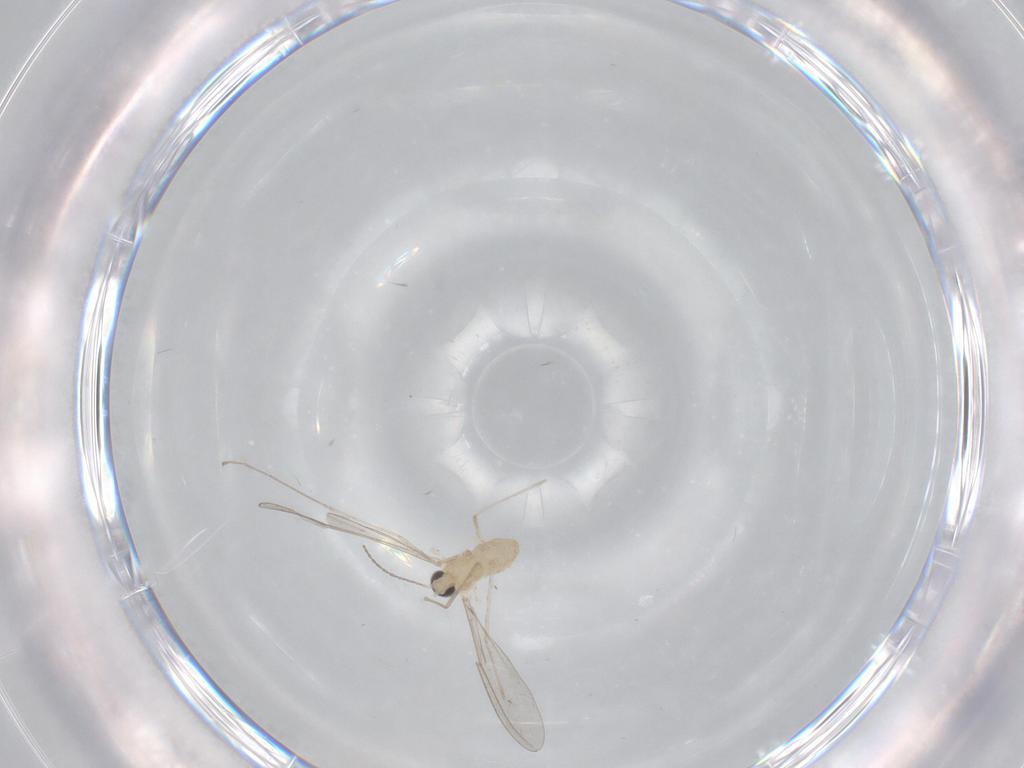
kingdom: Animalia
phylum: Arthropoda
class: Insecta
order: Diptera
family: Cecidomyiidae
